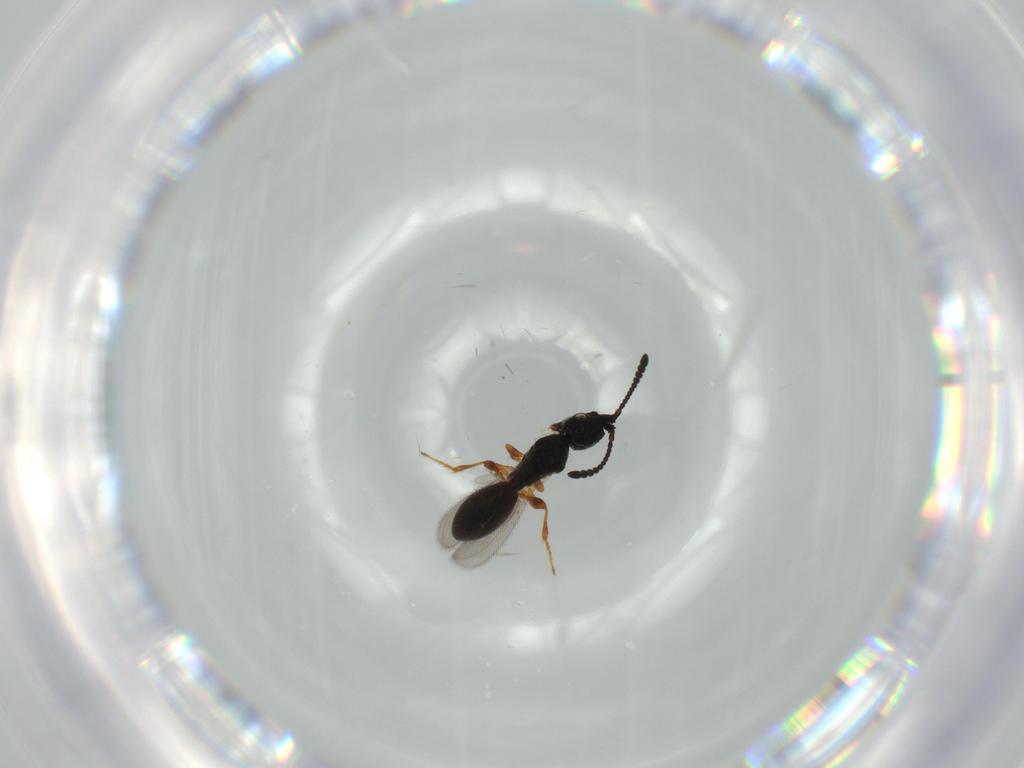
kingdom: Animalia
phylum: Arthropoda
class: Insecta
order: Hymenoptera
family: Diapriidae
